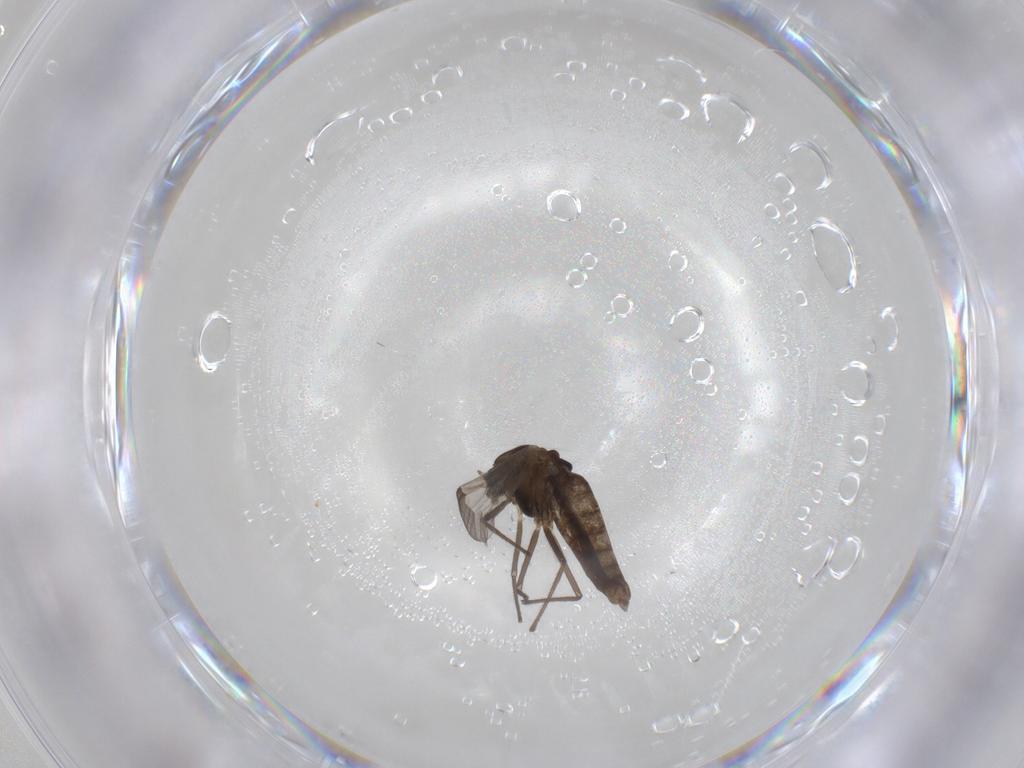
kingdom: Animalia
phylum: Arthropoda
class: Insecta
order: Diptera
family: Chironomidae
